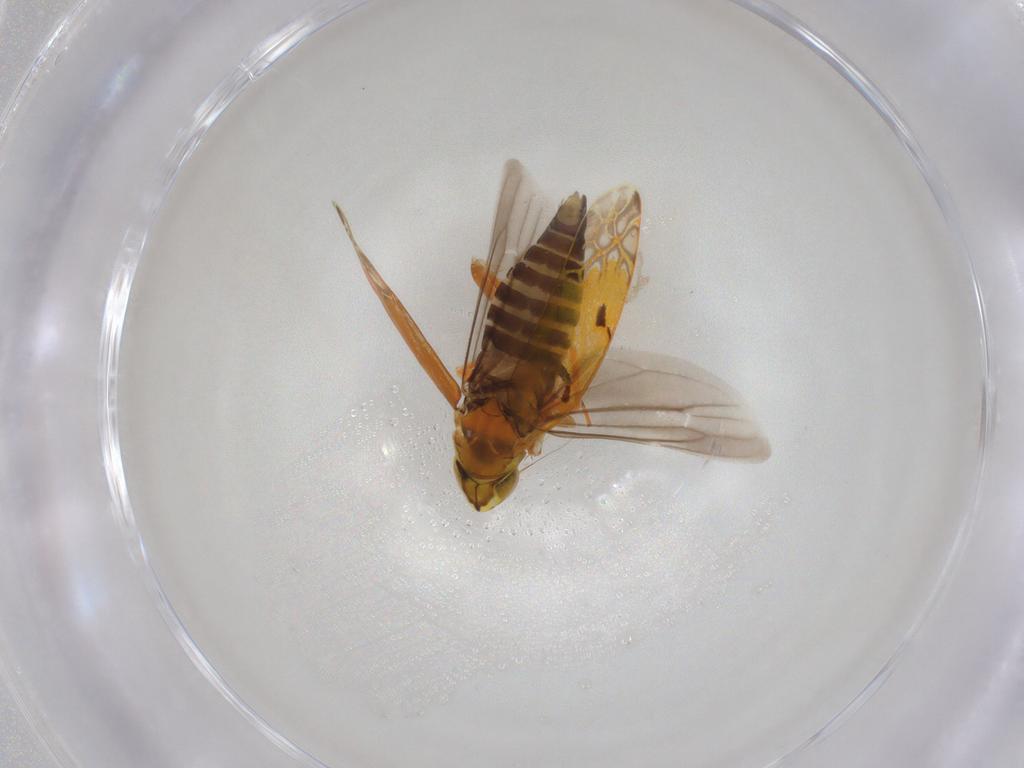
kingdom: Animalia
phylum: Arthropoda
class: Insecta
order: Hemiptera
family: Cicadellidae
